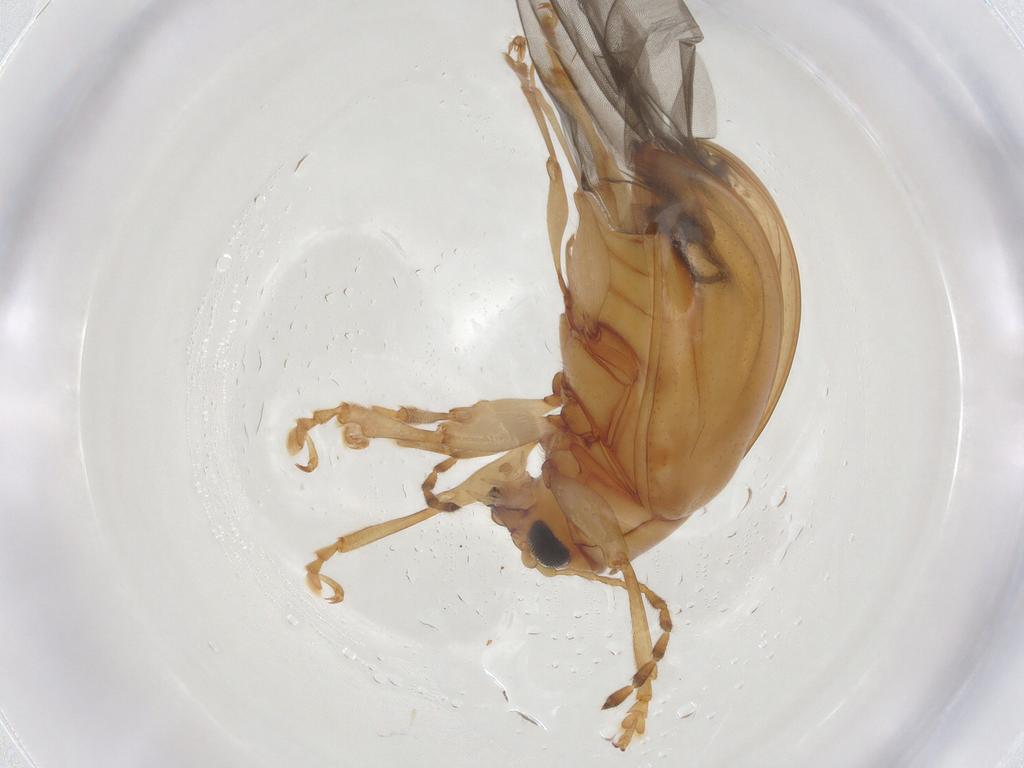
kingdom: Animalia
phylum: Arthropoda
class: Insecta
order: Coleoptera
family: Chrysomelidae
